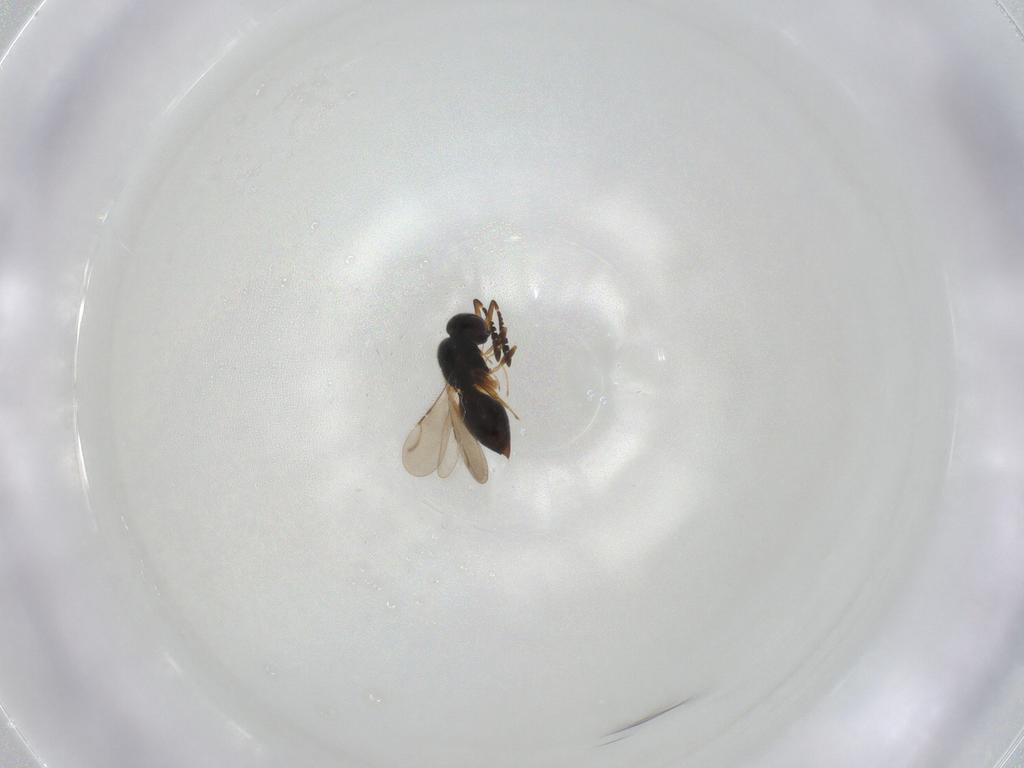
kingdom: Animalia
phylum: Arthropoda
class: Insecta
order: Hymenoptera
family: Ceraphronidae
